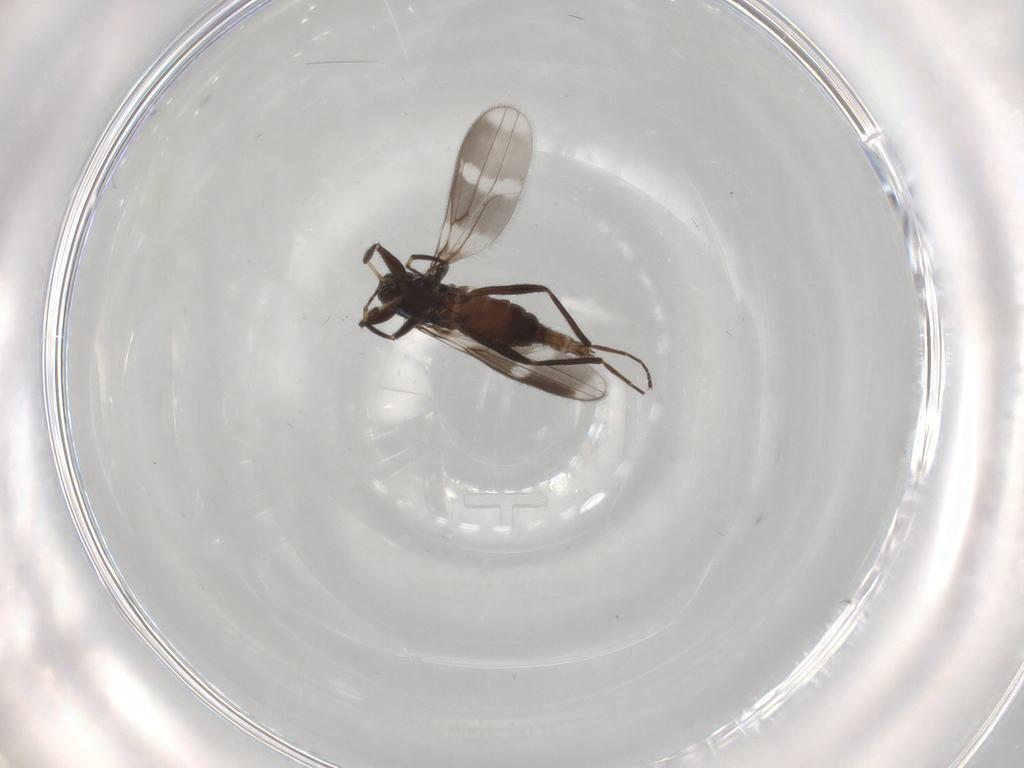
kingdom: Animalia
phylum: Arthropoda
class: Insecta
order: Diptera
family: Hybotidae
